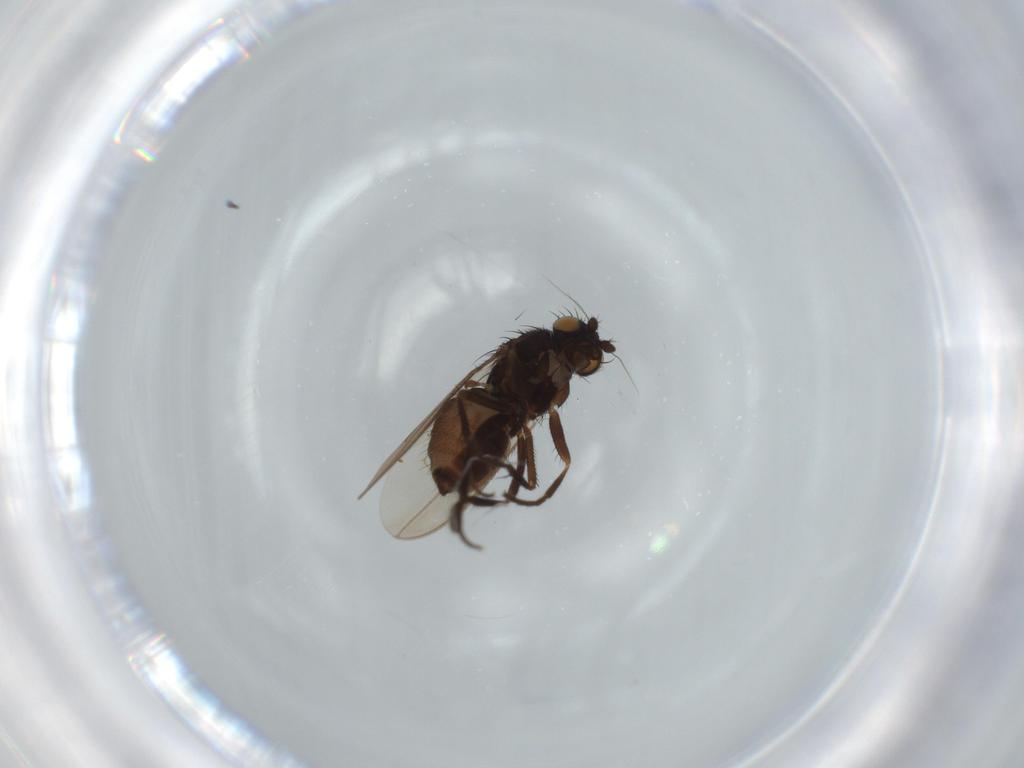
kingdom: Animalia
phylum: Arthropoda
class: Insecta
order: Diptera
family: Sphaeroceridae
